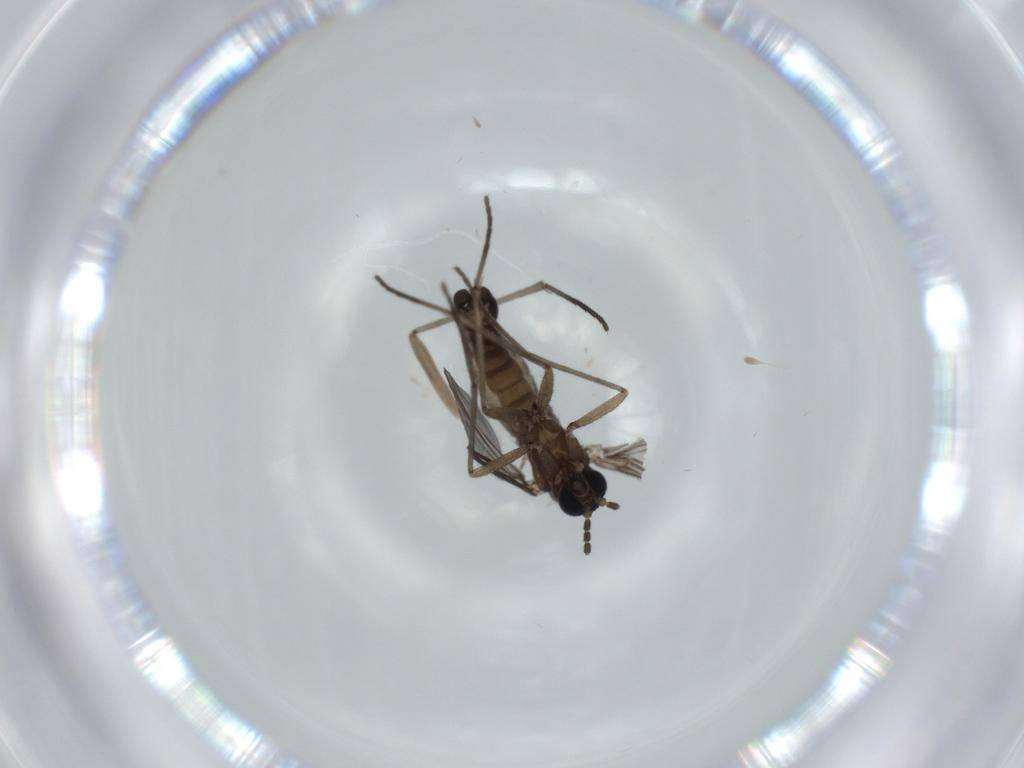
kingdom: Animalia
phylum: Arthropoda
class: Insecta
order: Diptera
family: Sciaridae
